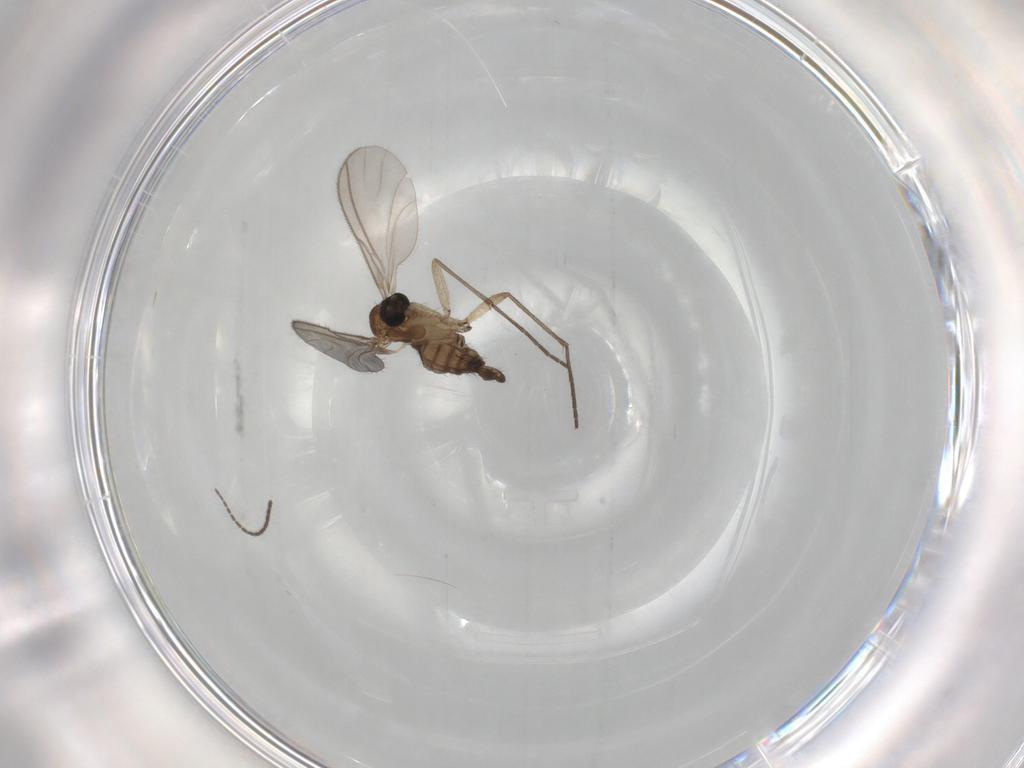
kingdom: Animalia
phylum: Arthropoda
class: Insecta
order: Diptera
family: Sciaridae
